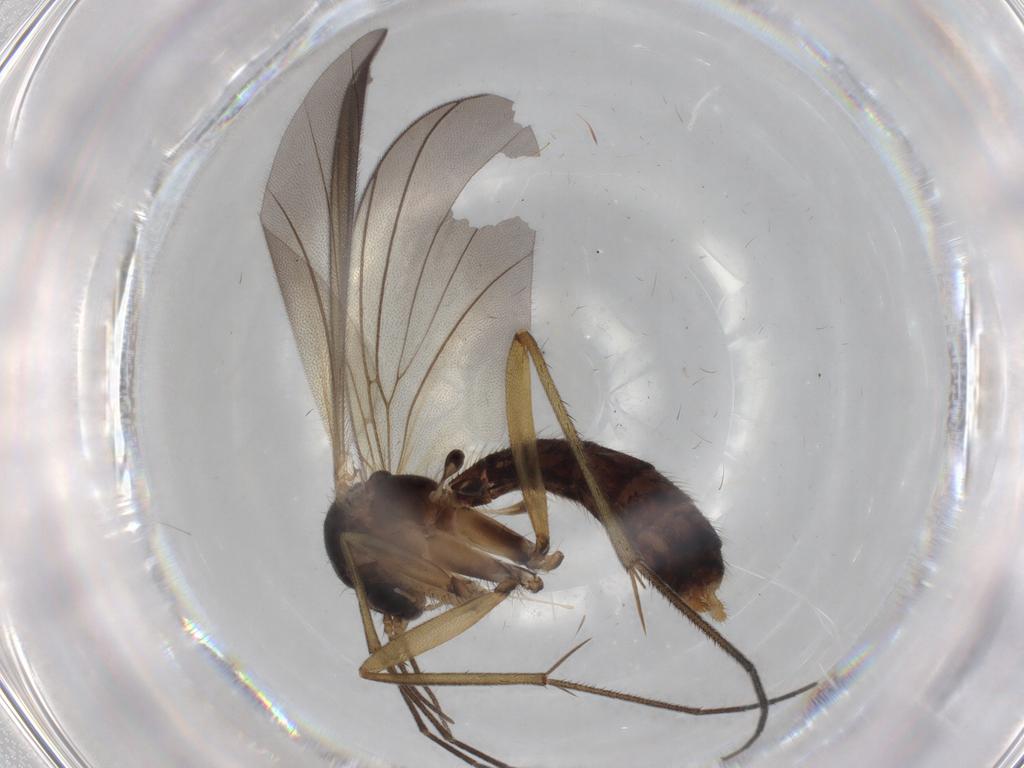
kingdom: Animalia
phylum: Arthropoda
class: Insecta
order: Diptera
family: Mycetophilidae
